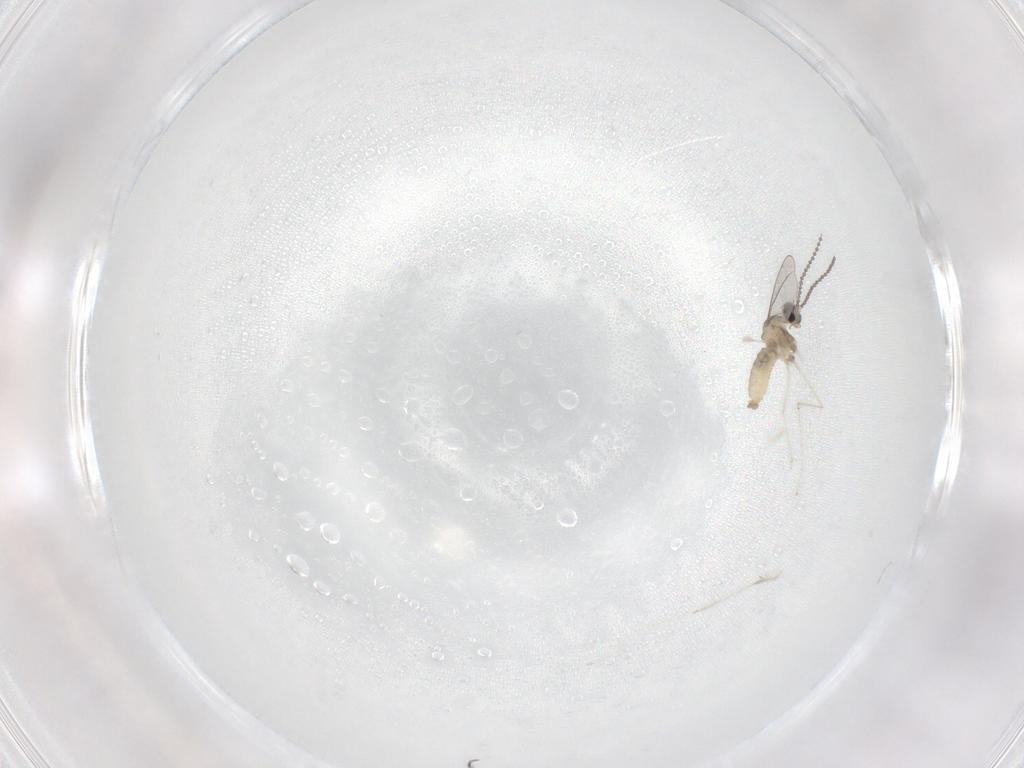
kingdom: Animalia
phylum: Arthropoda
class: Insecta
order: Diptera
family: Cecidomyiidae
